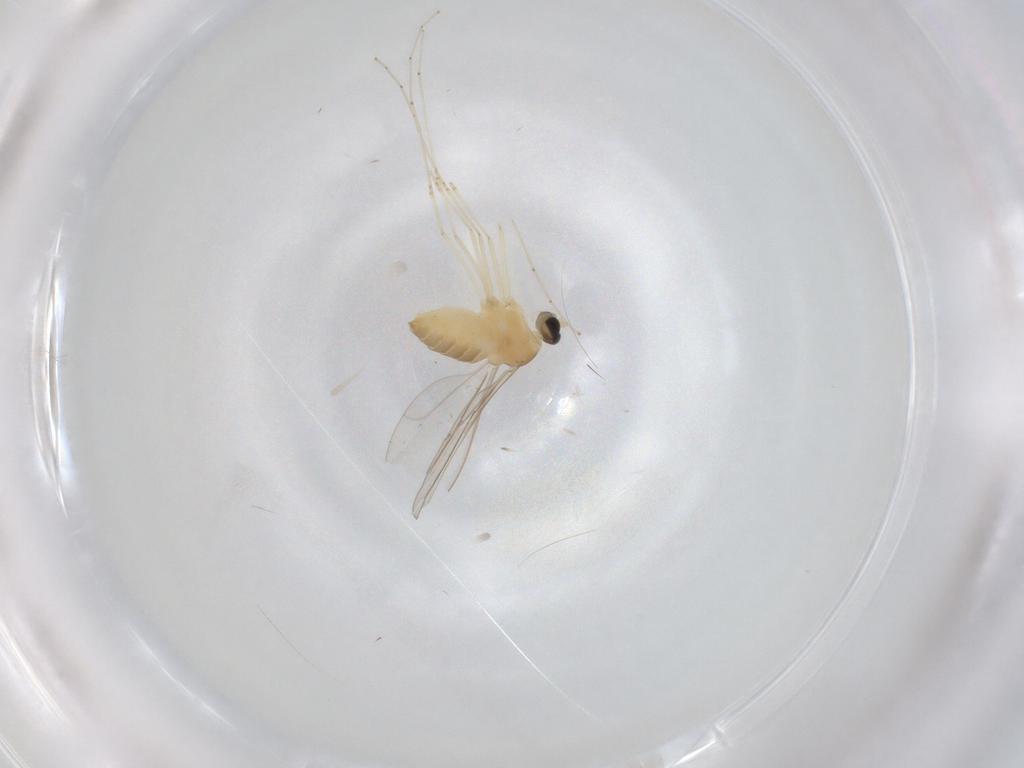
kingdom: Animalia
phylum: Arthropoda
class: Insecta
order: Diptera
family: Cecidomyiidae
